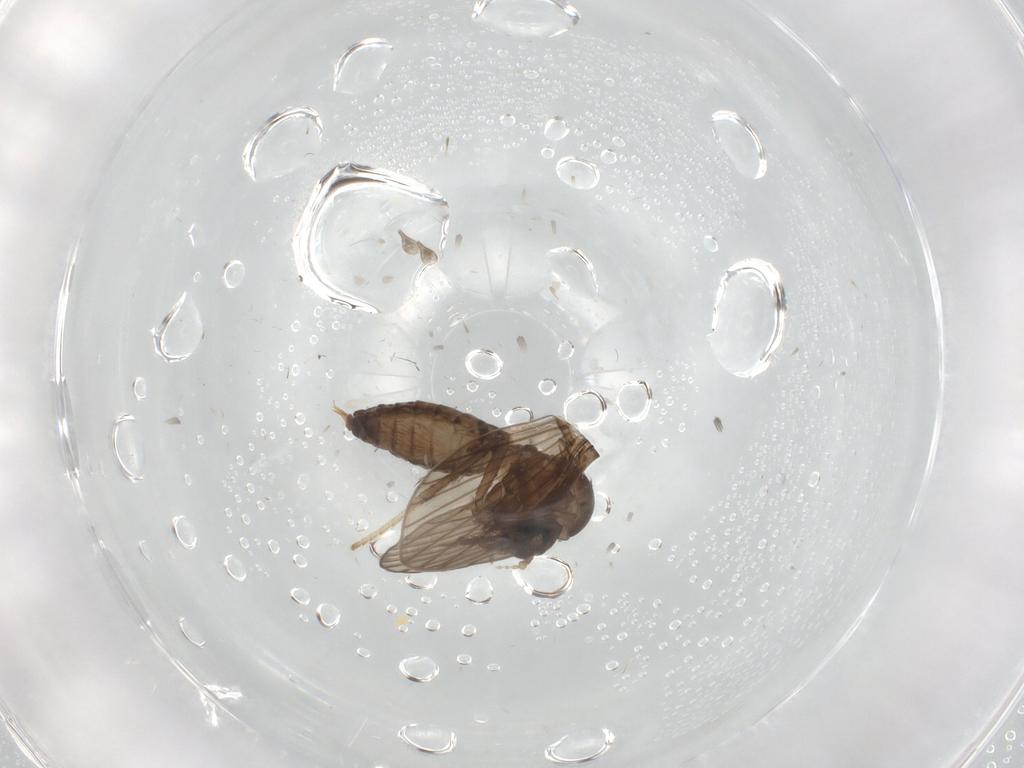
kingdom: Animalia
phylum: Arthropoda
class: Insecta
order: Diptera
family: Psychodidae
